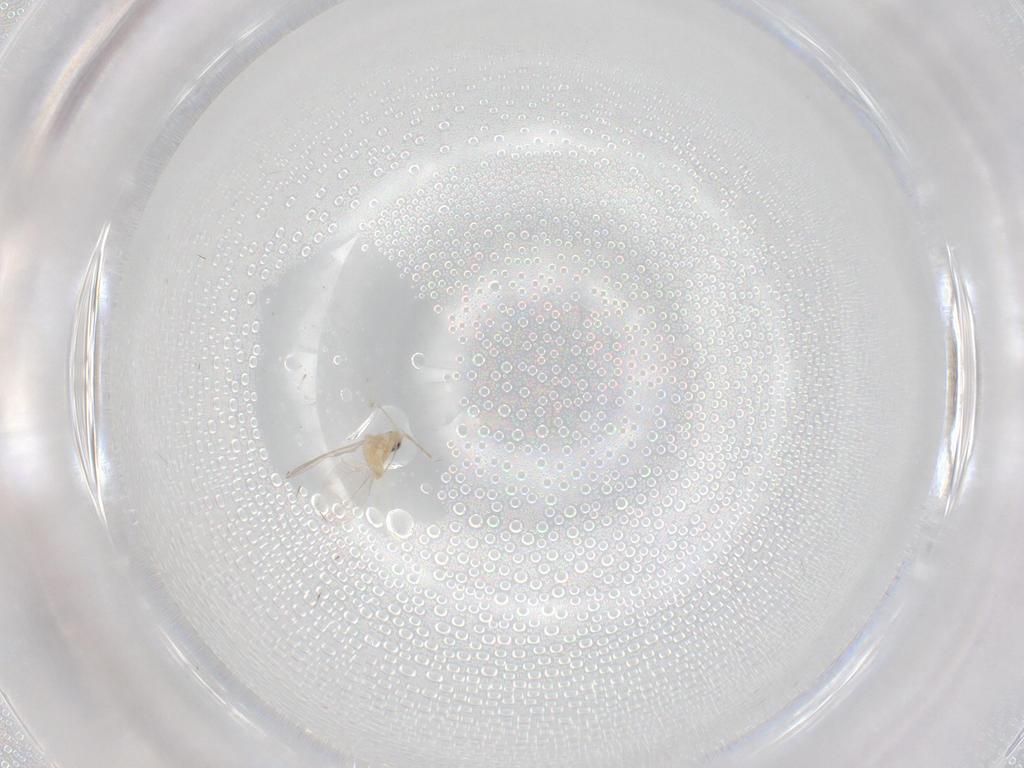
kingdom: Animalia
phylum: Arthropoda
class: Insecta
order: Diptera
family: Cecidomyiidae
